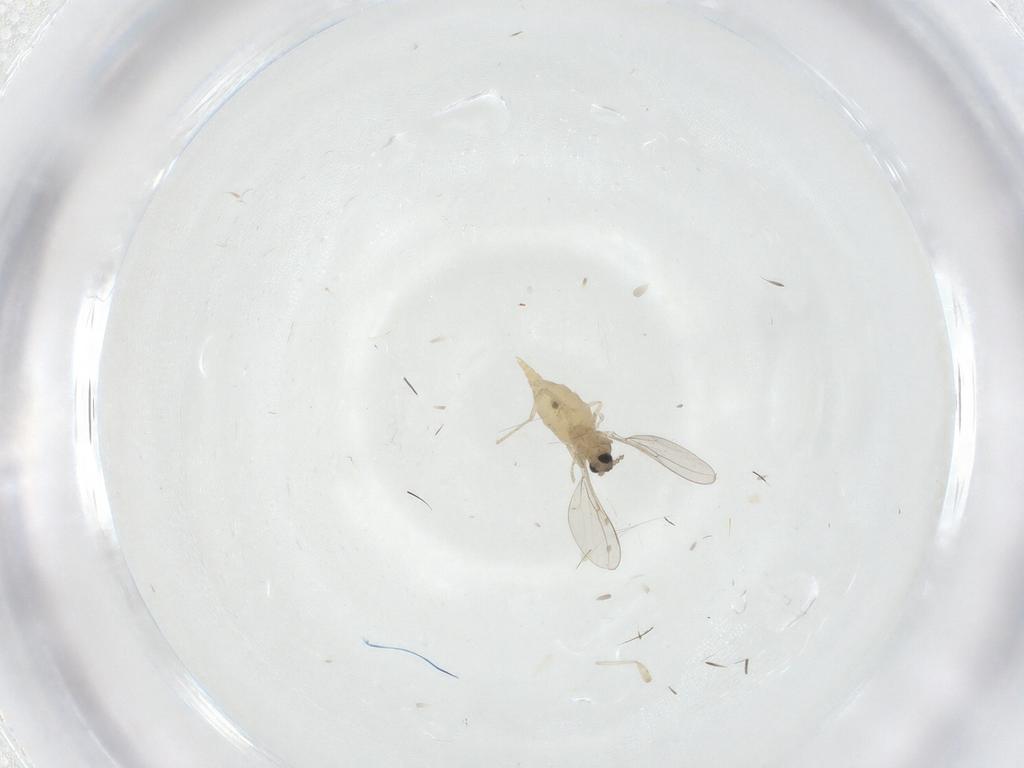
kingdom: Animalia
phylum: Arthropoda
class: Insecta
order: Diptera
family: Cecidomyiidae
